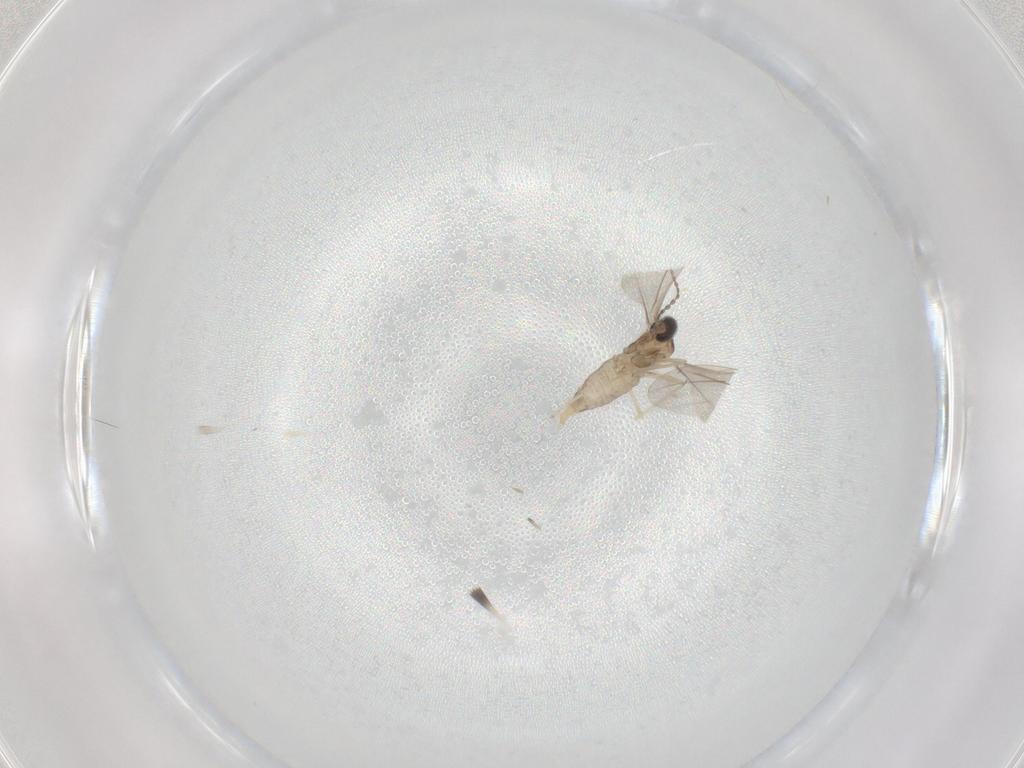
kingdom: Animalia
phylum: Arthropoda
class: Insecta
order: Diptera
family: Cecidomyiidae
